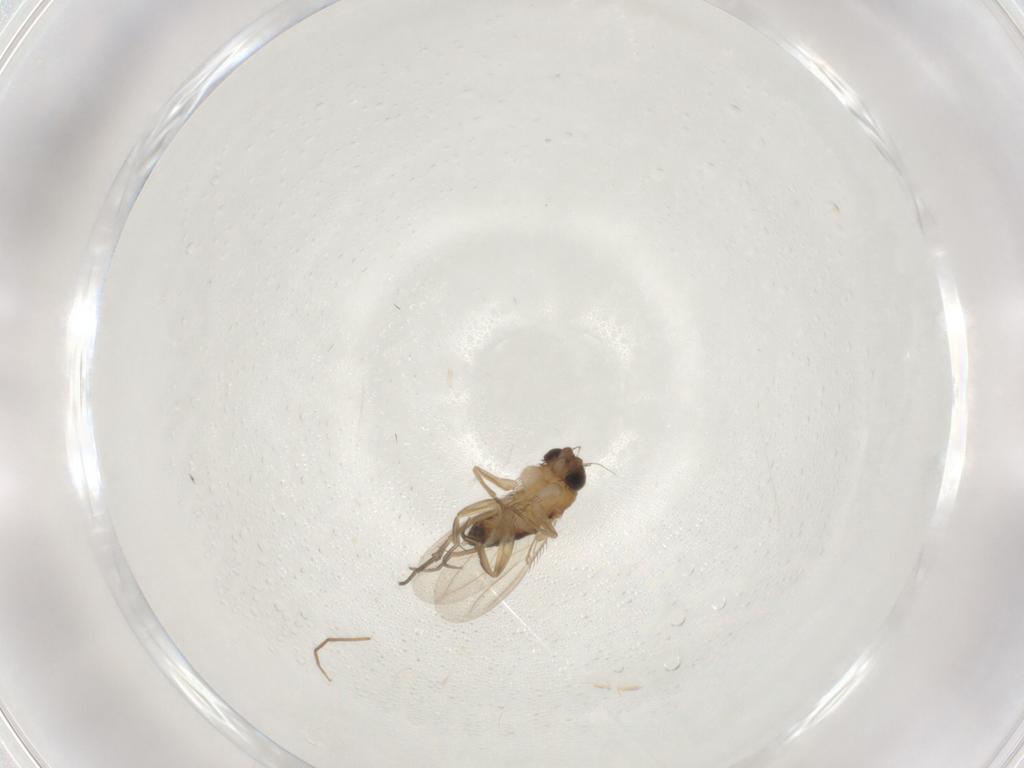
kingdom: Animalia
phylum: Arthropoda
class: Insecta
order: Diptera
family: Phoridae
